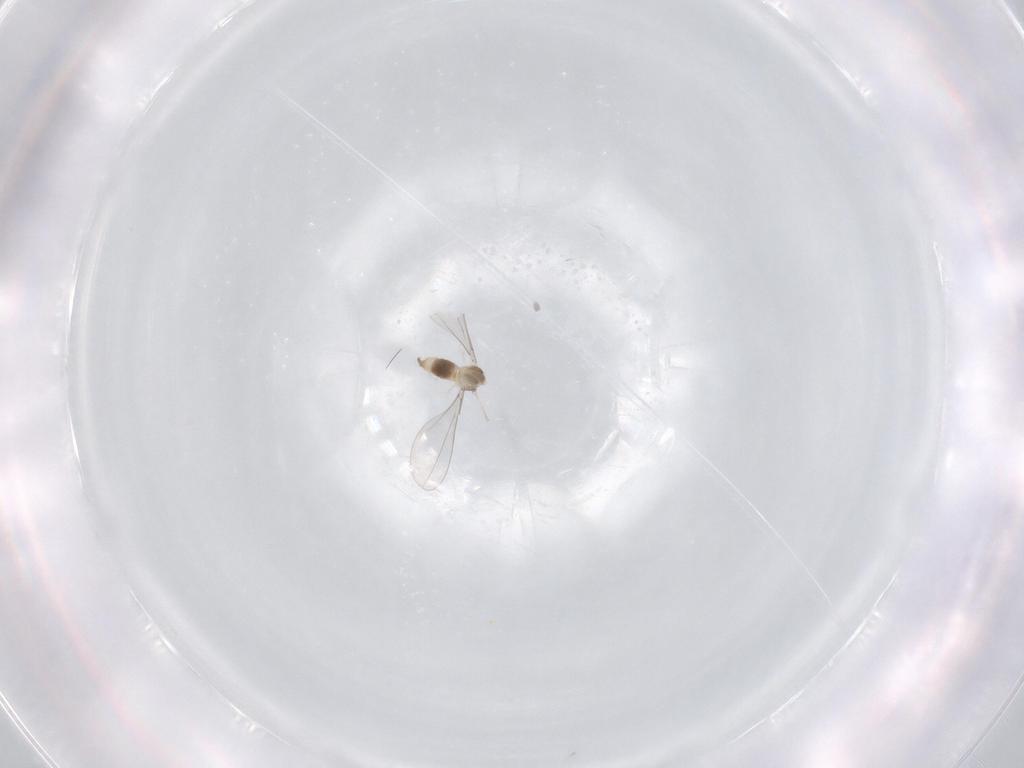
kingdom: Animalia
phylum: Arthropoda
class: Insecta
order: Diptera
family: Cecidomyiidae
